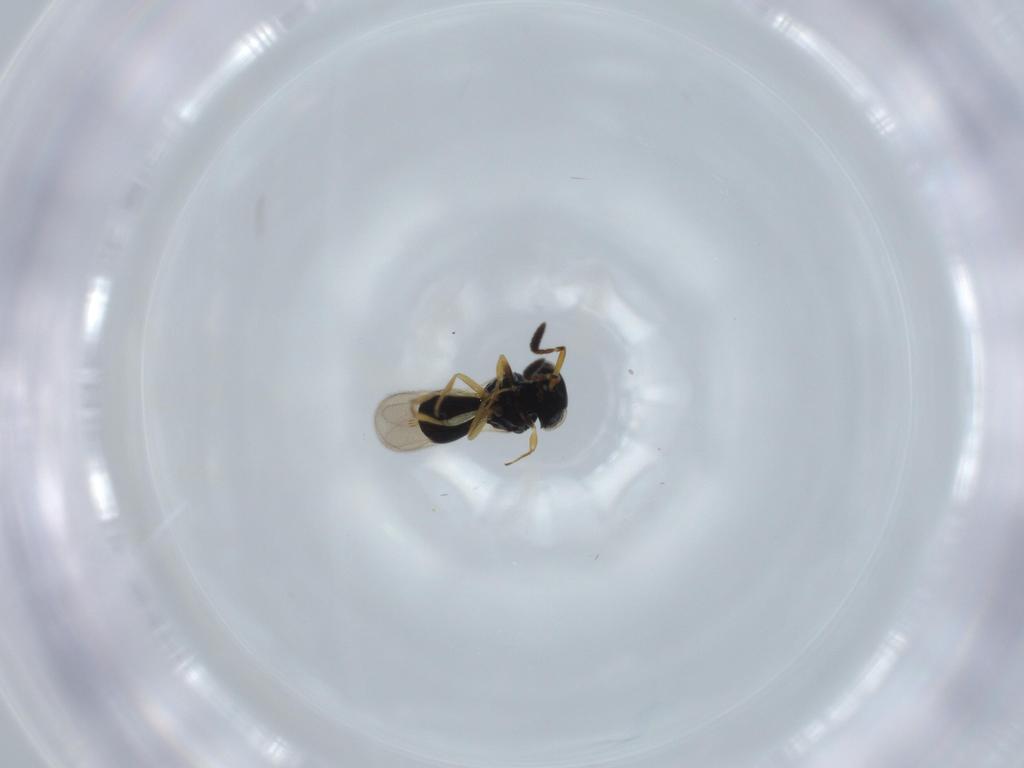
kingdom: Animalia
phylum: Arthropoda
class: Insecta
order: Hymenoptera
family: Scelionidae
